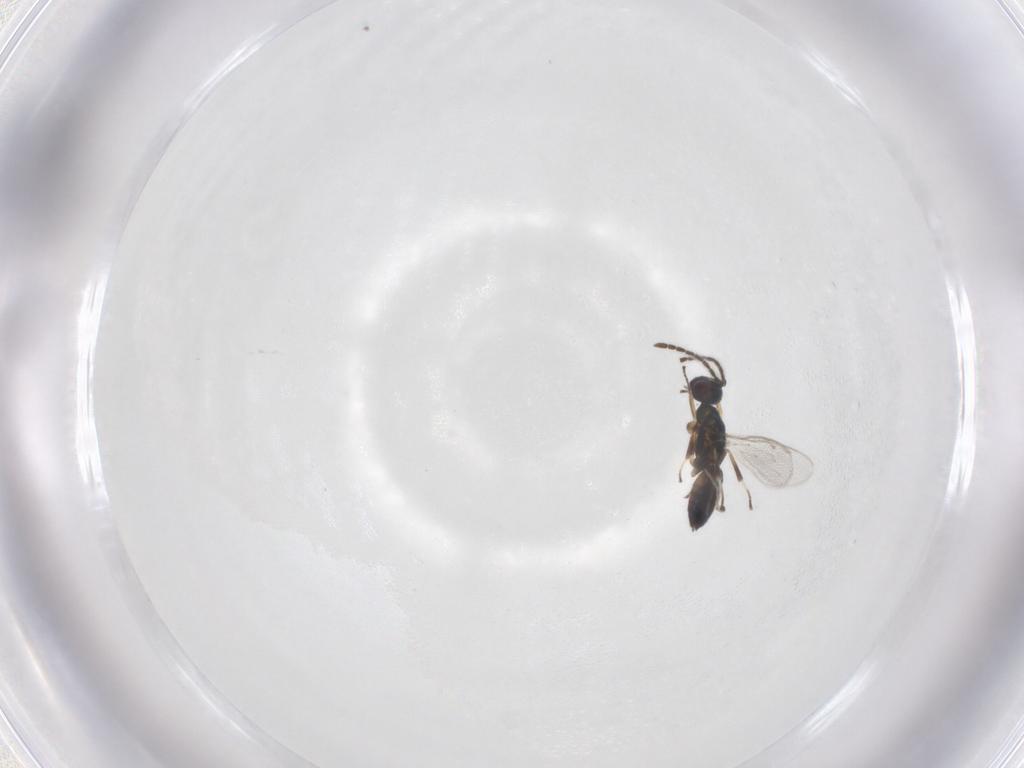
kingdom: Animalia
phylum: Arthropoda
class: Insecta
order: Hymenoptera
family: Eupelmidae
